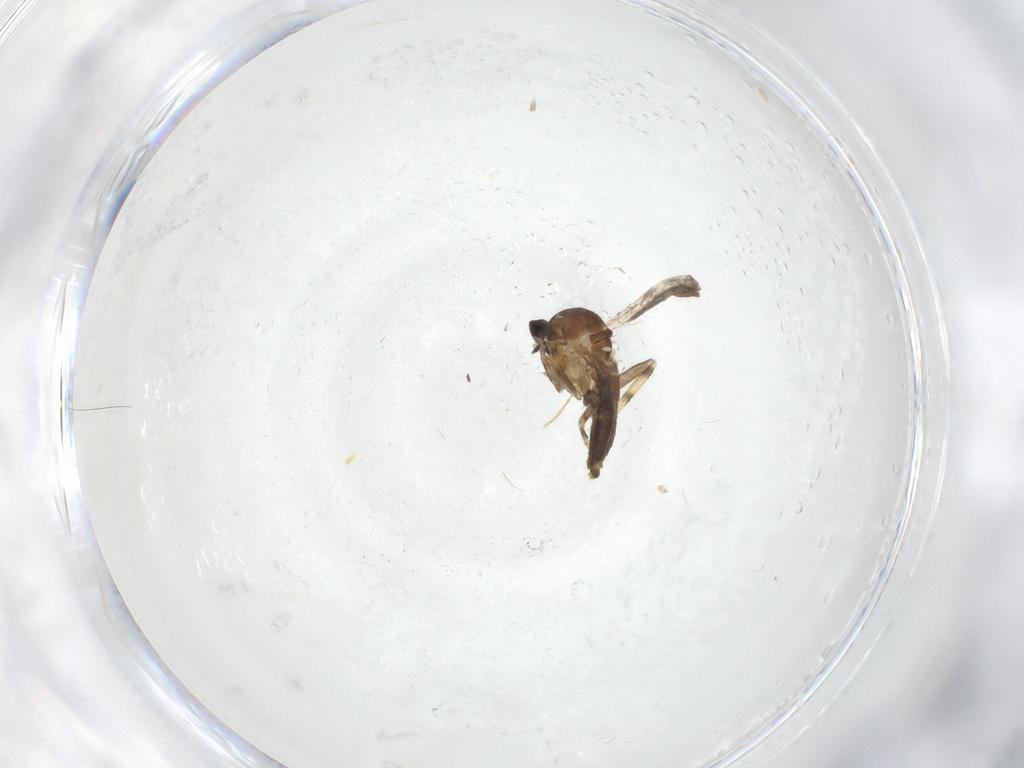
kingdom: Animalia
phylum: Arthropoda
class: Insecta
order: Diptera
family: Ceratopogonidae
